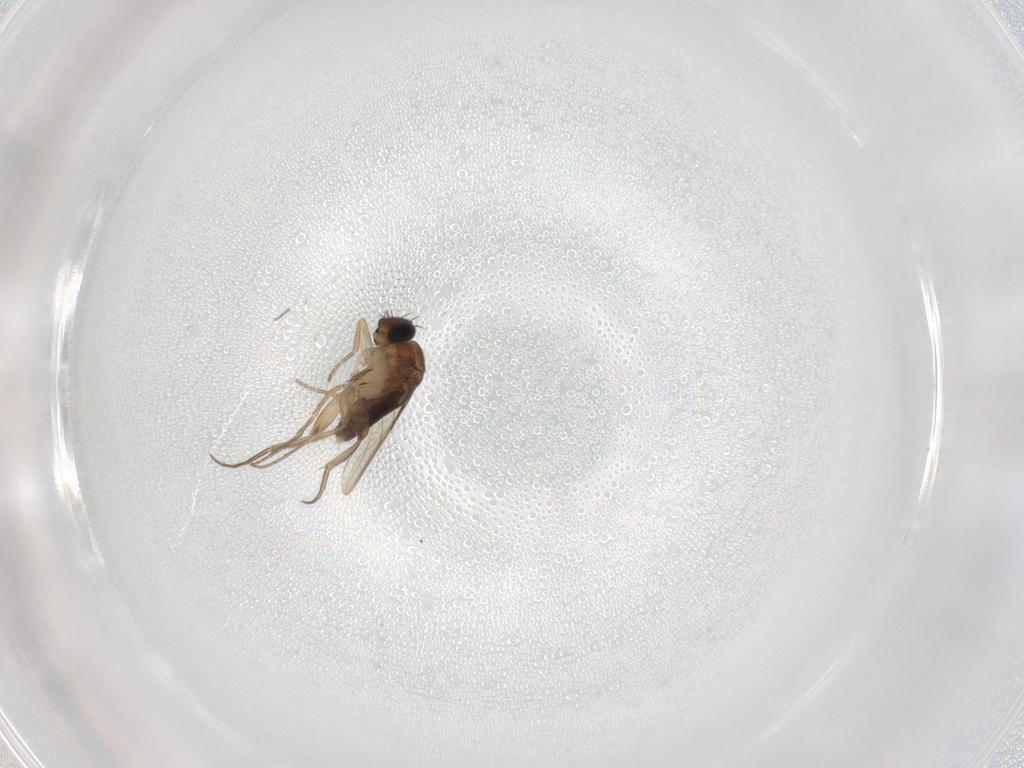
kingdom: Animalia
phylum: Arthropoda
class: Insecta
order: Diptera
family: Phoridae
